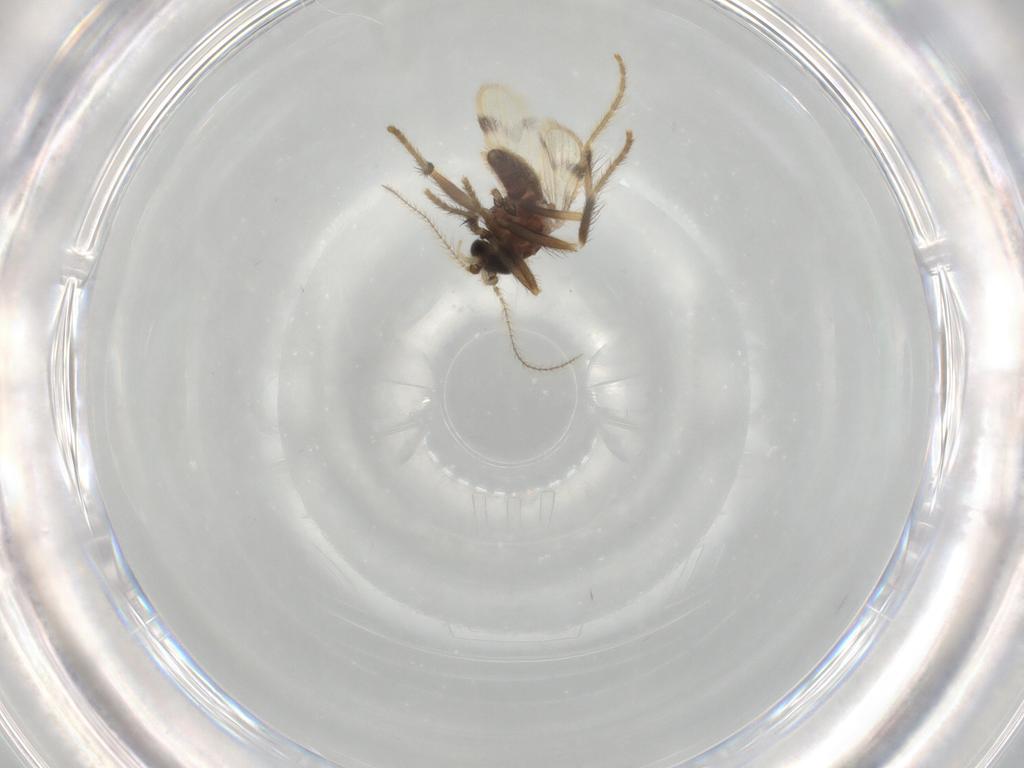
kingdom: Animalia
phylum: Arthropoda
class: Insecta
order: Diptera
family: Corethrellidae
